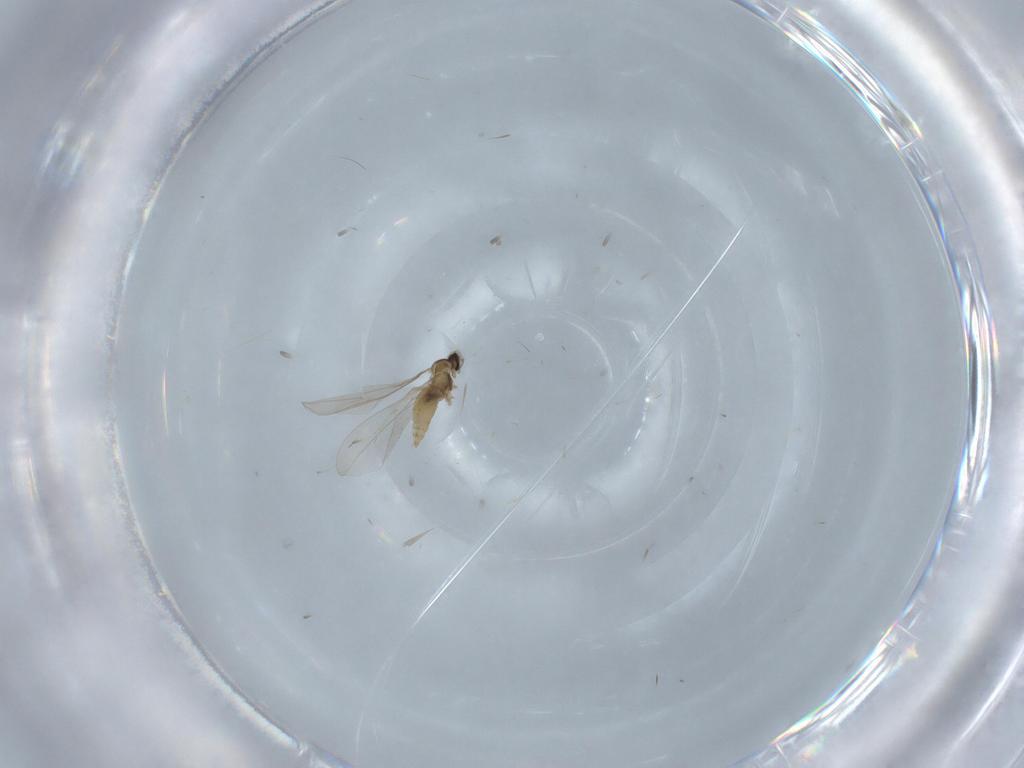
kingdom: Animalia
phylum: Arthropoda
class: Insecta
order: Diptera
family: Cecidomyiidae
